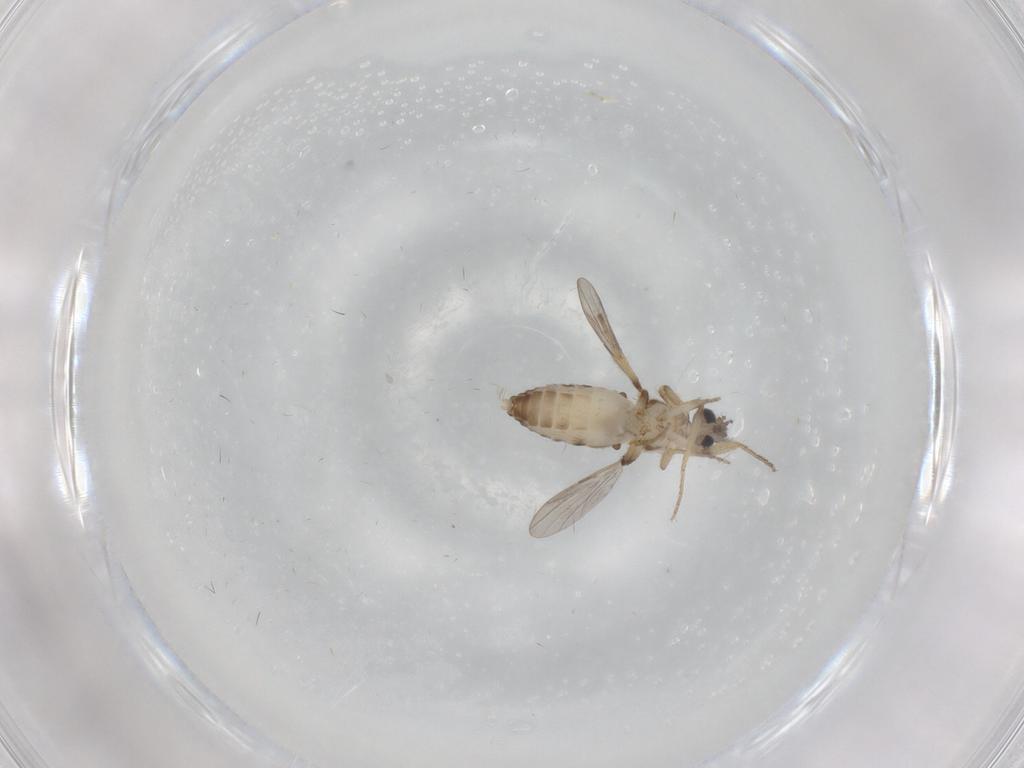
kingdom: Animalia
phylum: Arthropoda
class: Insecta
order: Diptera
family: Ceratopogonidae
